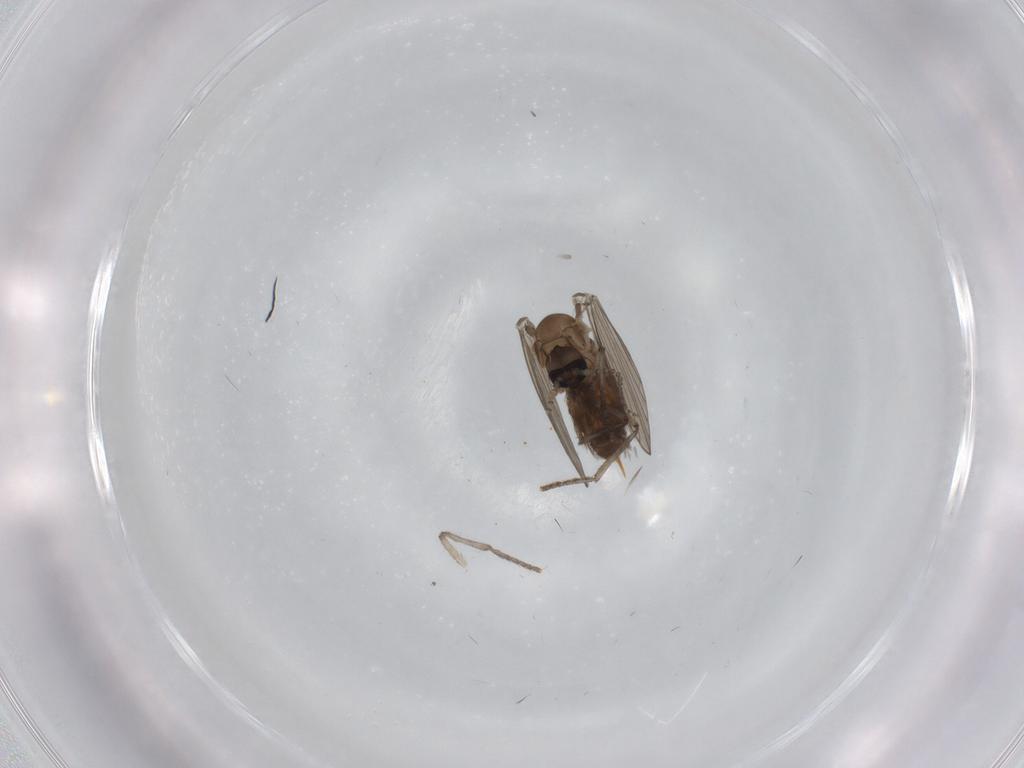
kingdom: Animalia
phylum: Arthropoda
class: Insecta
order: Diptera
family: Psychodidae
